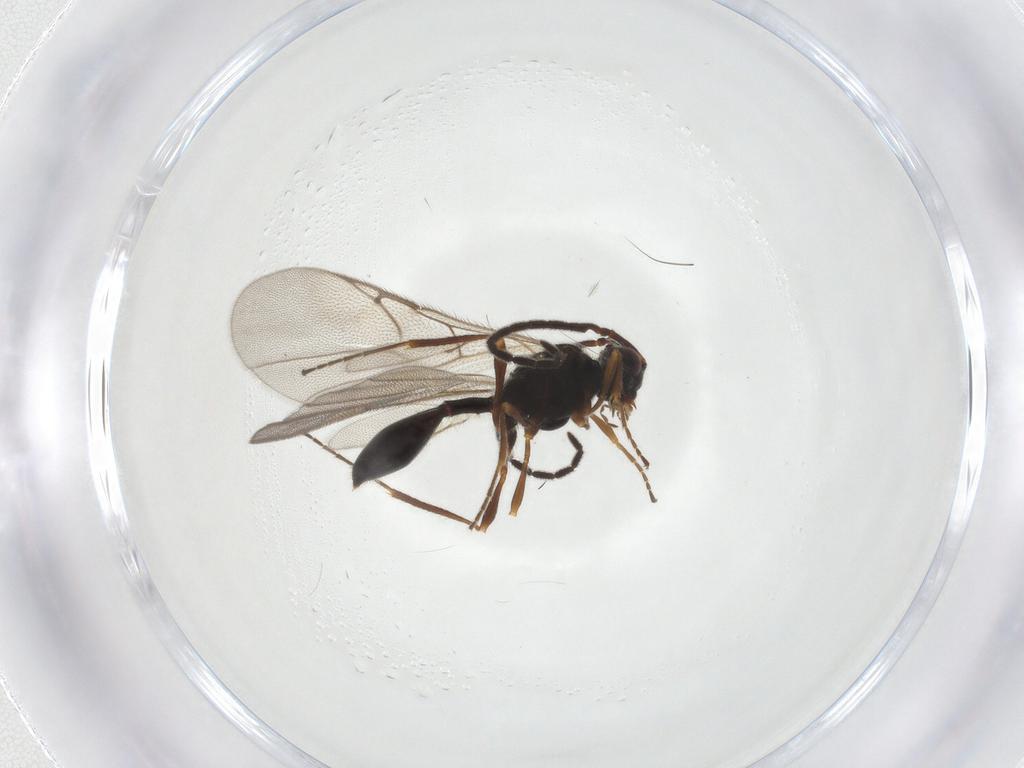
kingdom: Animalia
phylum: Arthropoda
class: Insecta
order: Hymenoptera
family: Diapriidae
